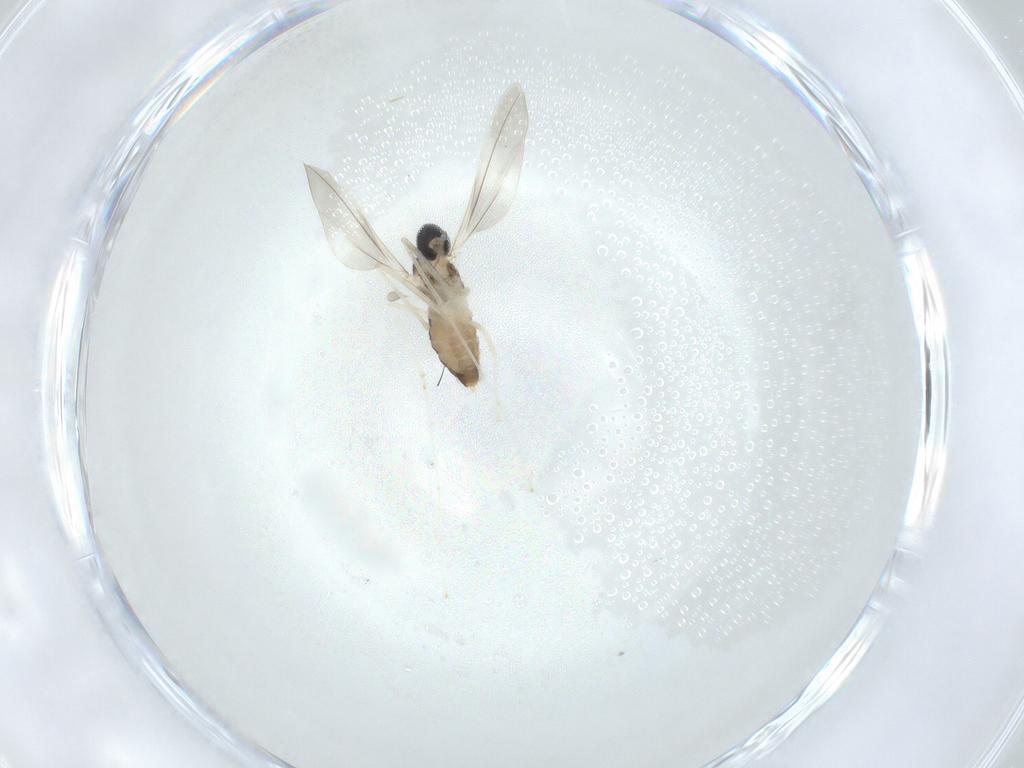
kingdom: Animalia
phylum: Arthropoda
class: Insecta
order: Diptera
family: Cecidomyiidae
